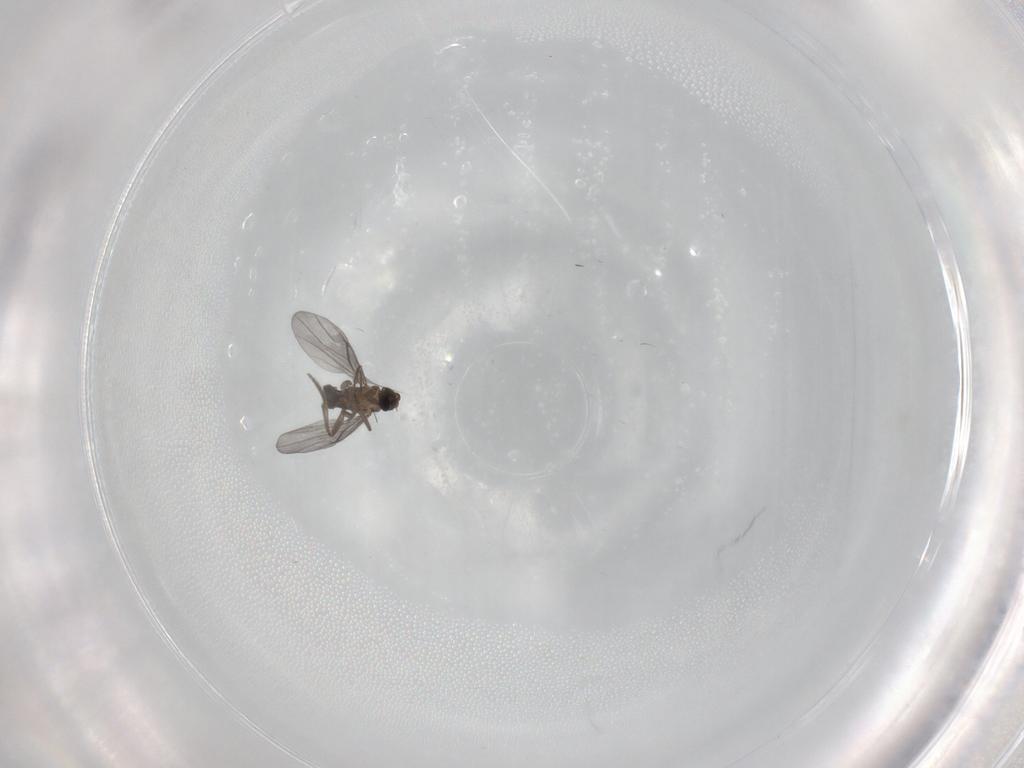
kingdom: Animalia
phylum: Arthropoda
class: Insecta
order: Diptera
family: Phoridae
